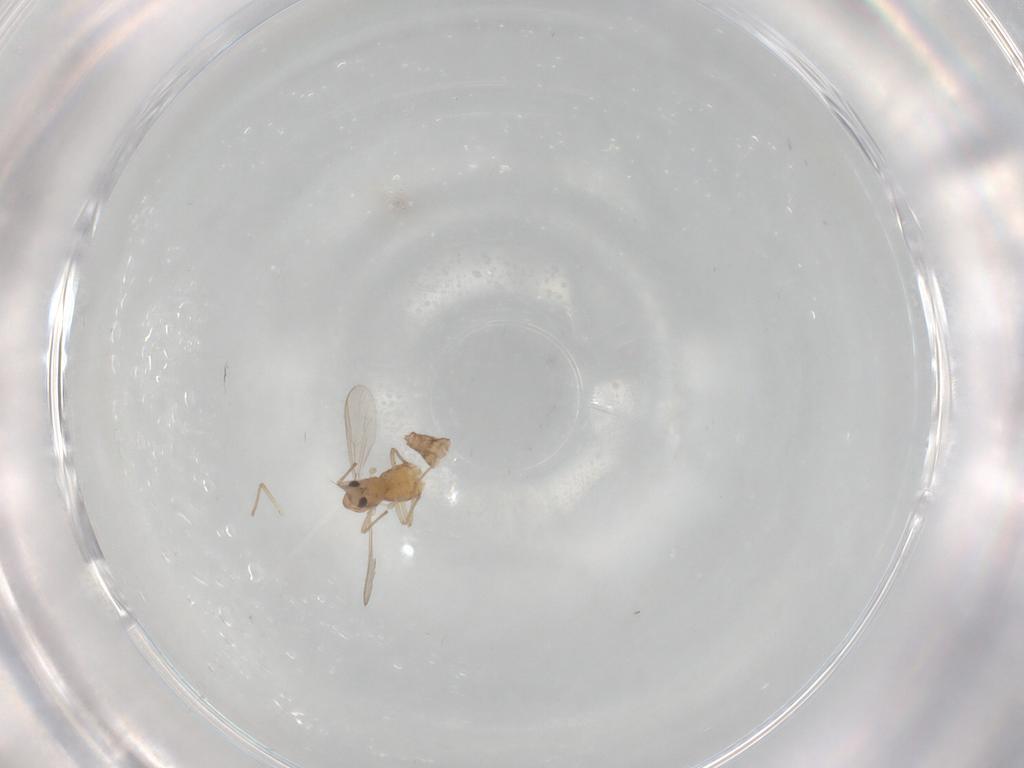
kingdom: Animalia
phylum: Arthropoda
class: Insecta
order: Diptera
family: Chironomidae
